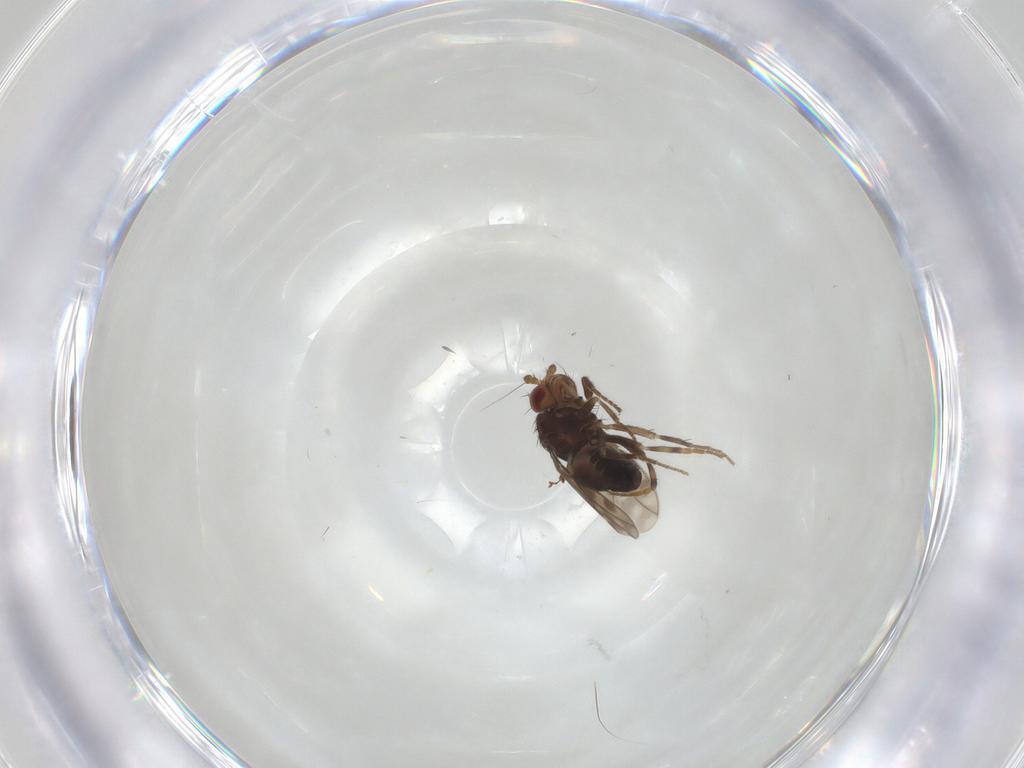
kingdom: Animalia
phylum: Arthropoda
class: Insecta
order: Diptera
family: Sphaeroceridae
